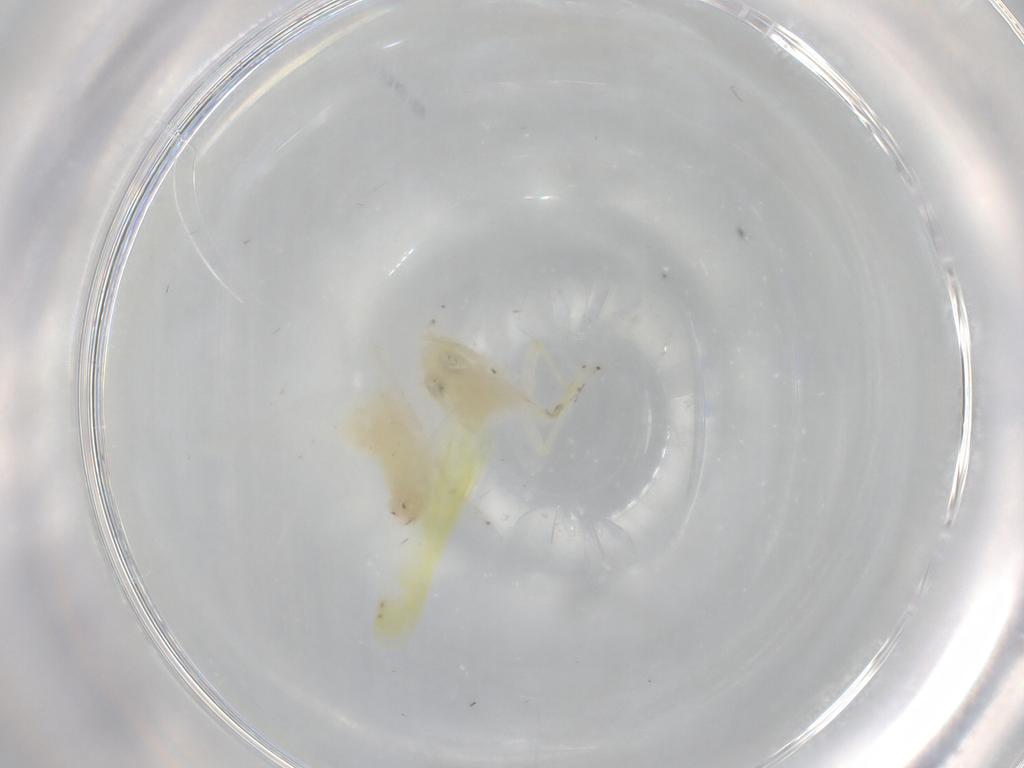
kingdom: Animalia
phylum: Arthropoda
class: Insecta
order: Hemiptera
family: Cicadellidae
